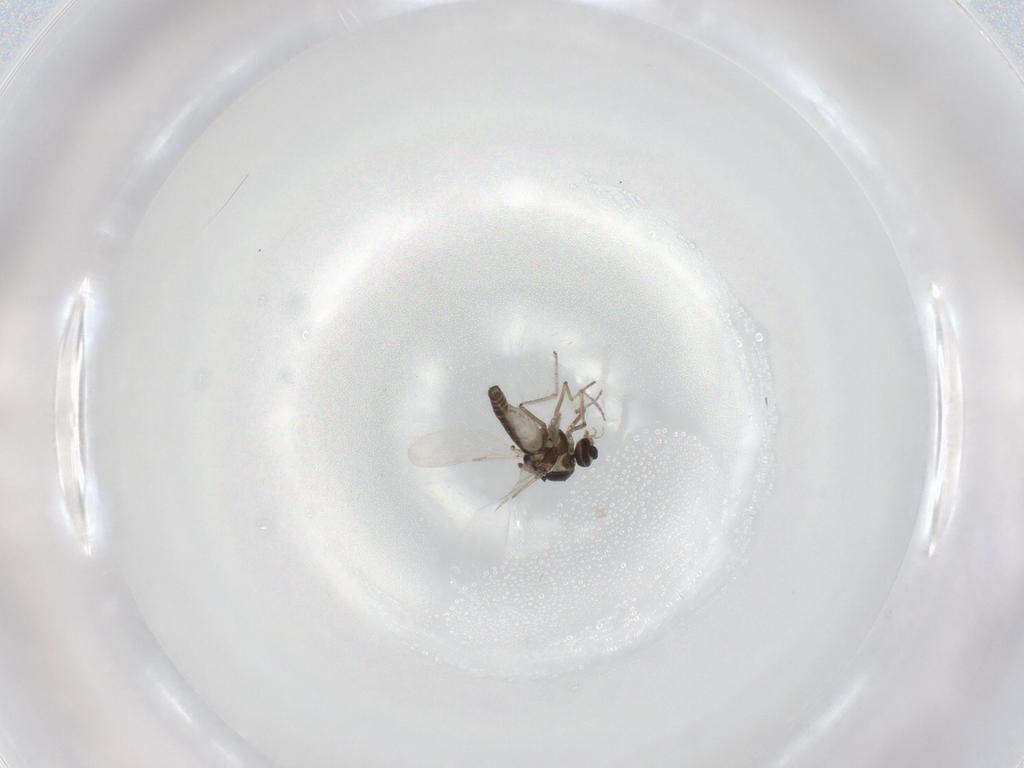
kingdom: Animalia
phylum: Arthropoda
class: Insecta
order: Diptera
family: Ceratopogonidae
